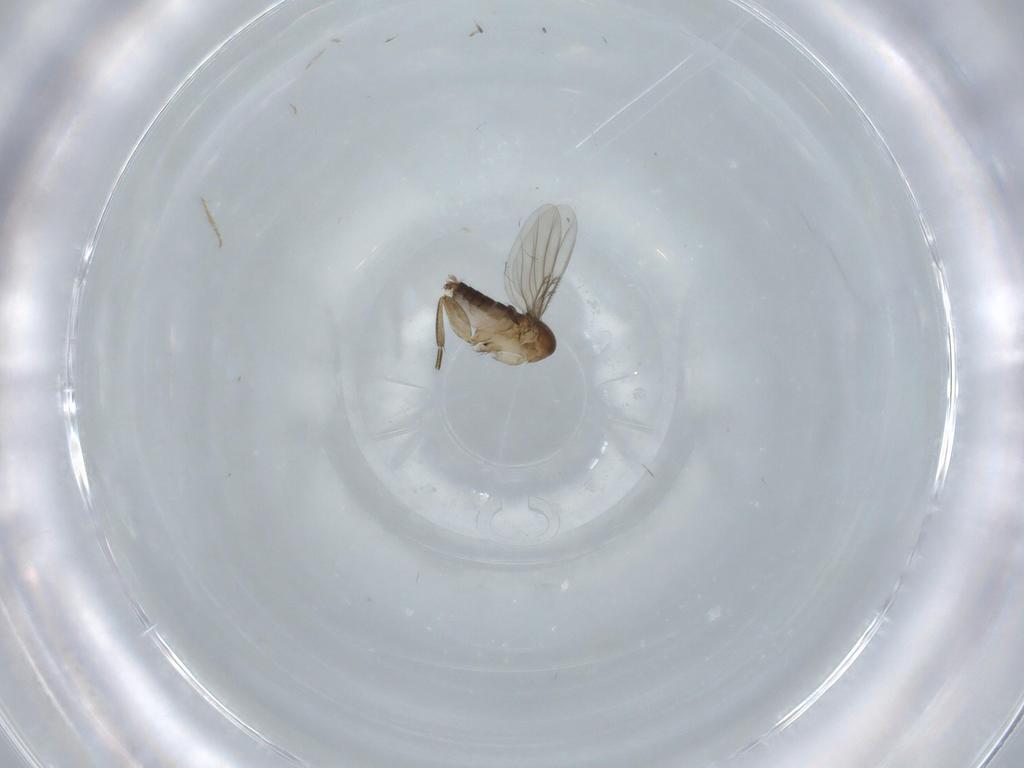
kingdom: Animalia
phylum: Arthropoda
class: Insecta
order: Diptera
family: Phoridae
